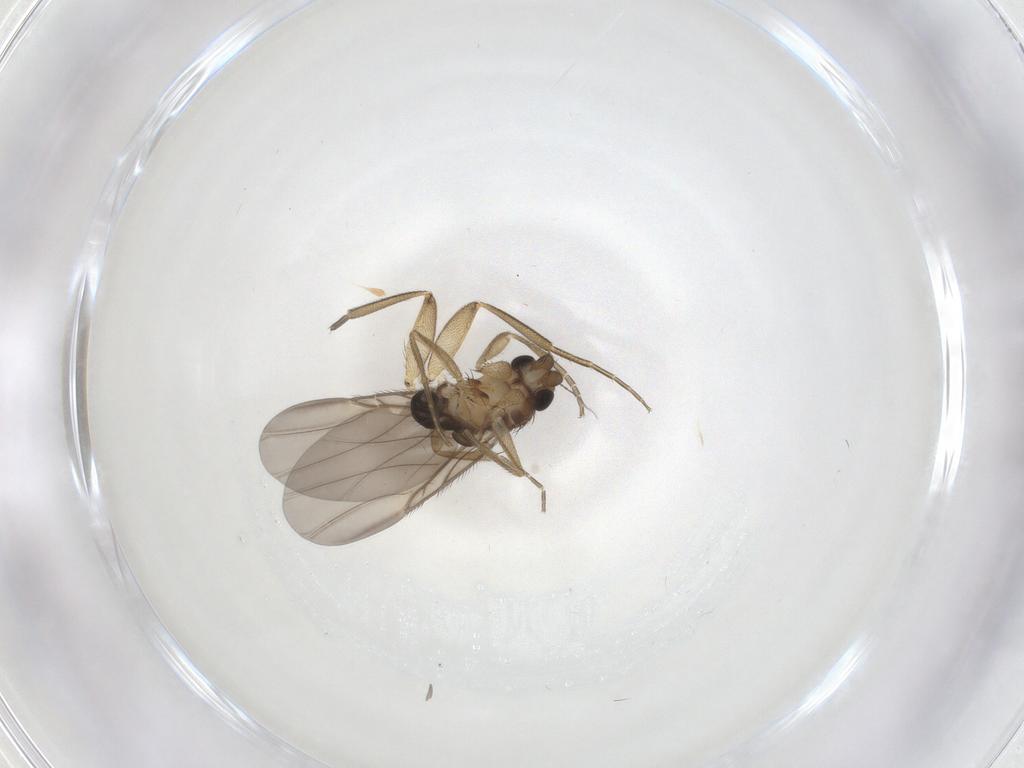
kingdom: Animalia
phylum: Arthropoda
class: Insecta
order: Diptera
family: Phoridae
